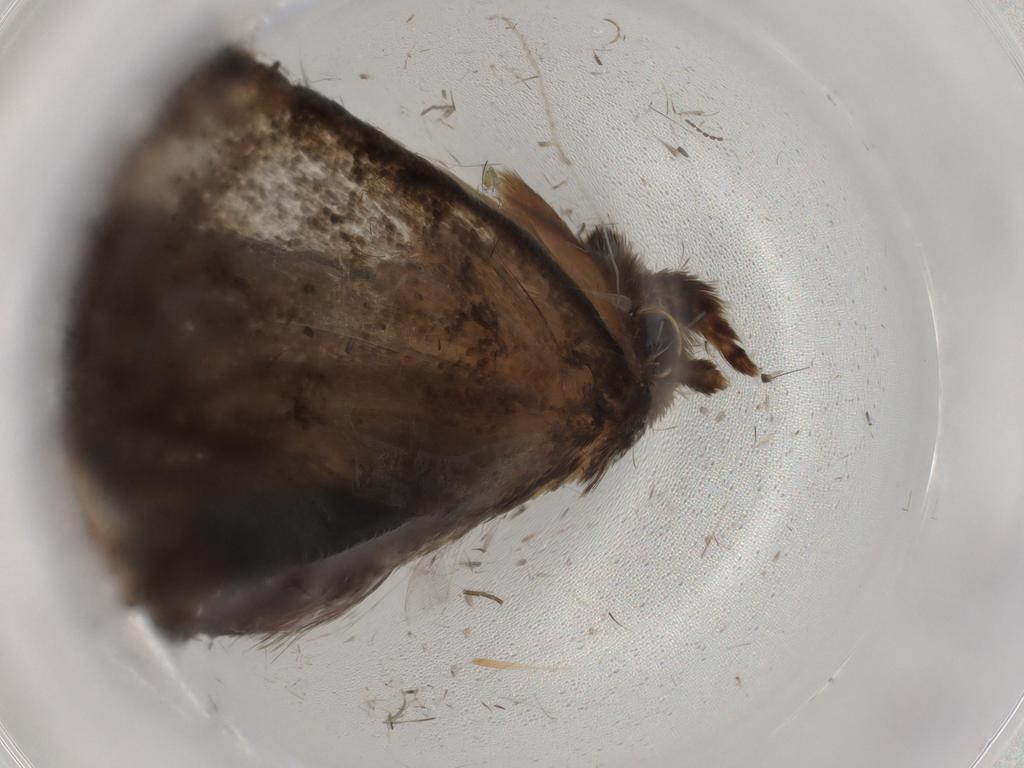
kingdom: Animalia
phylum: Arthropoda
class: Insecta
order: Lepidoptera
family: Tineidae
